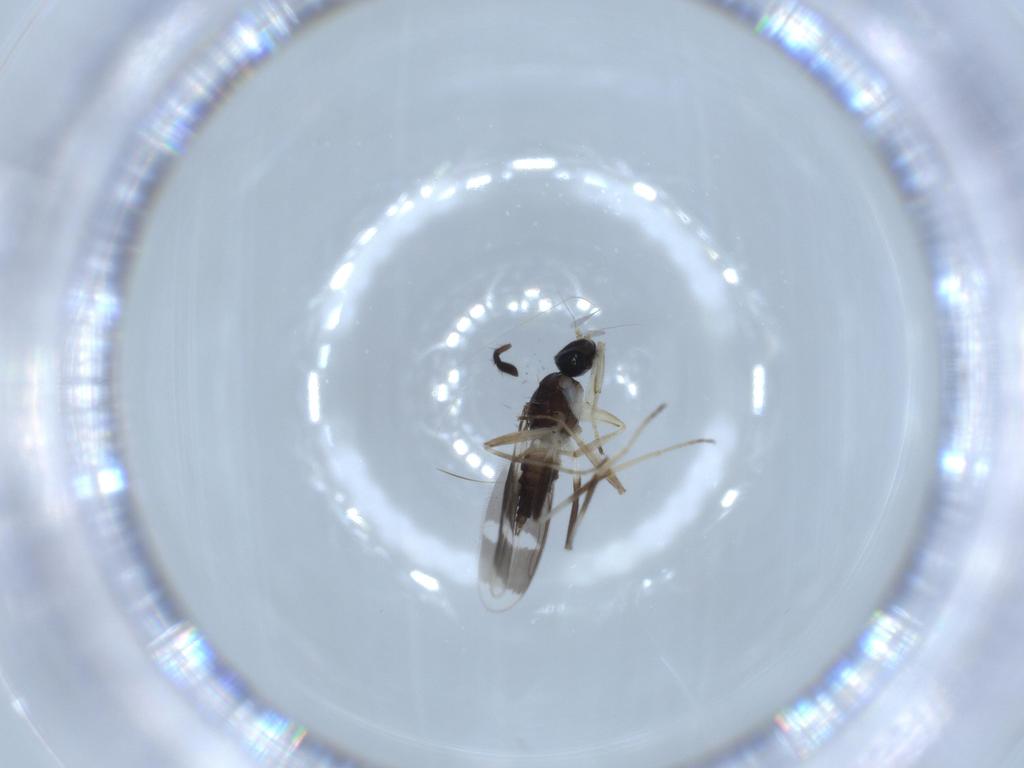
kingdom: Animalia
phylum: Arthropoda
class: Insecta
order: Diptera
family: Hybotidae
